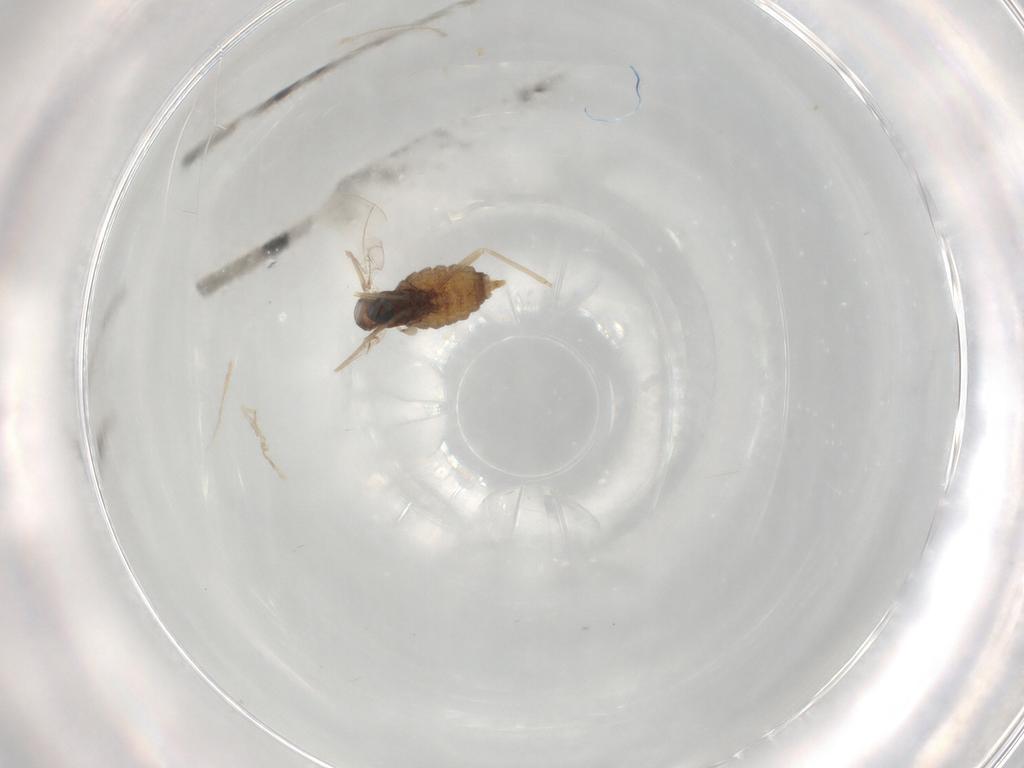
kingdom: Animalia
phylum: Arthropoda
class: Insecta
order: Diptera
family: Cecidomyiidae
